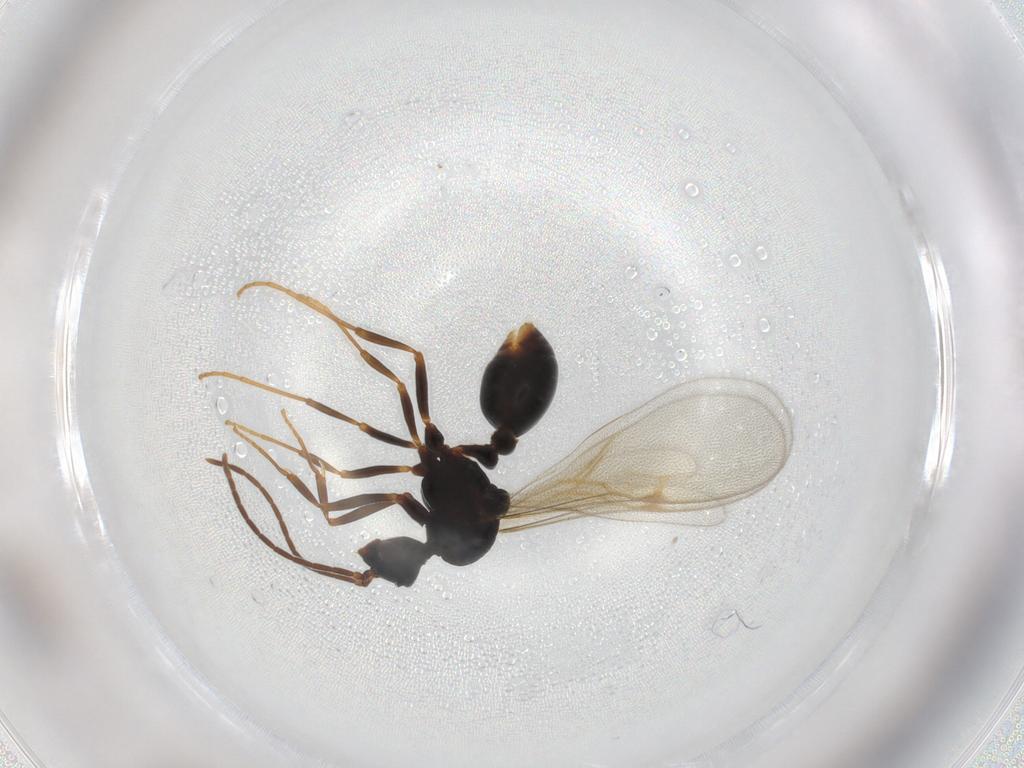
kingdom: Animalia
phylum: Arthropoda
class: Insecta
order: Hymenoptera
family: Formicidae
